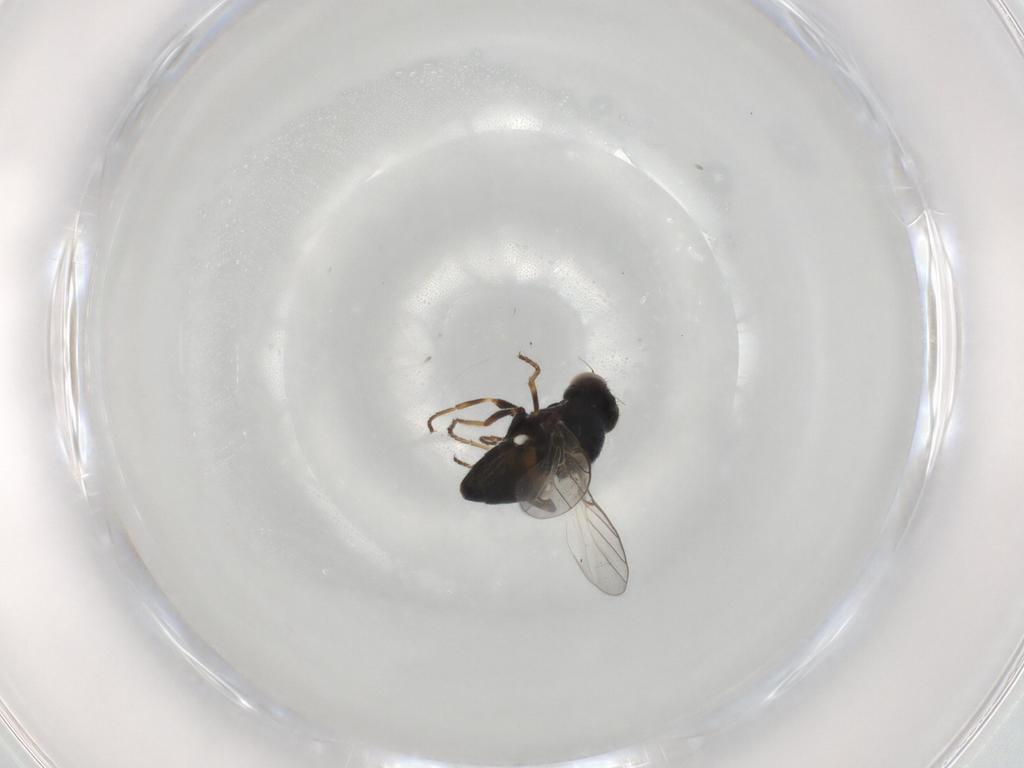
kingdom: Animalia
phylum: Arthropoda
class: Insecta
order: Diptera
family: Chloropidae
